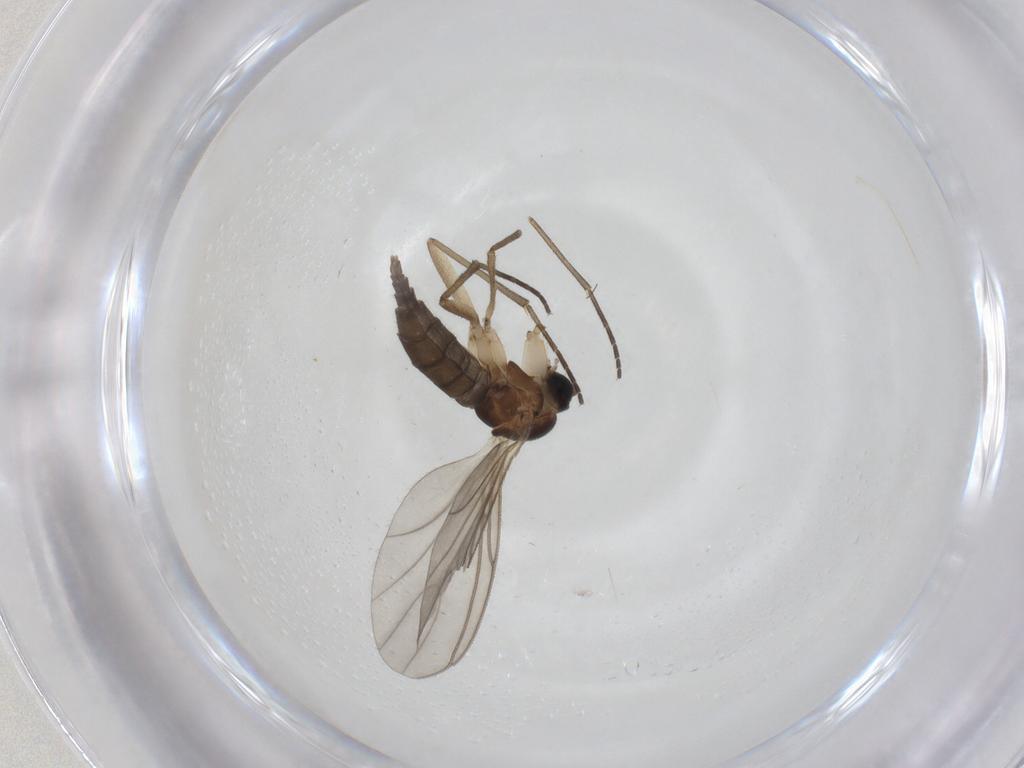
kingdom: Animalia
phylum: Arthropoda
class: Insecta
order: Diptera
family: Sciaridae
